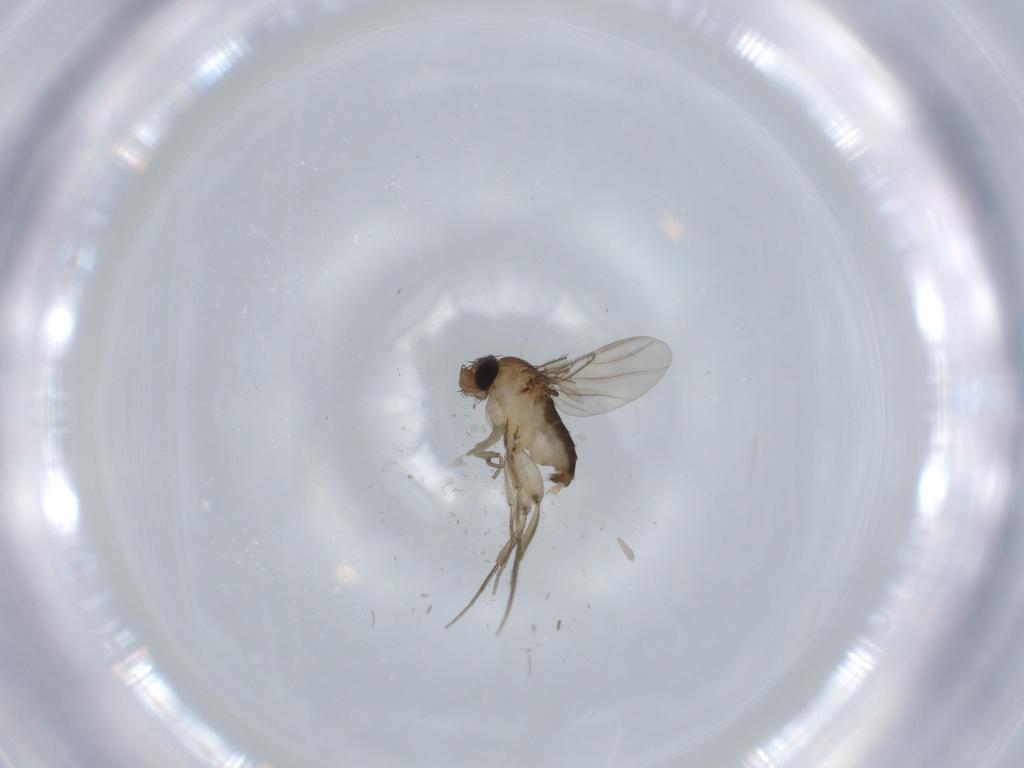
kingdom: Animalia
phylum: Arthropoda
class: Insecta
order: Diptera
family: Phoridae
